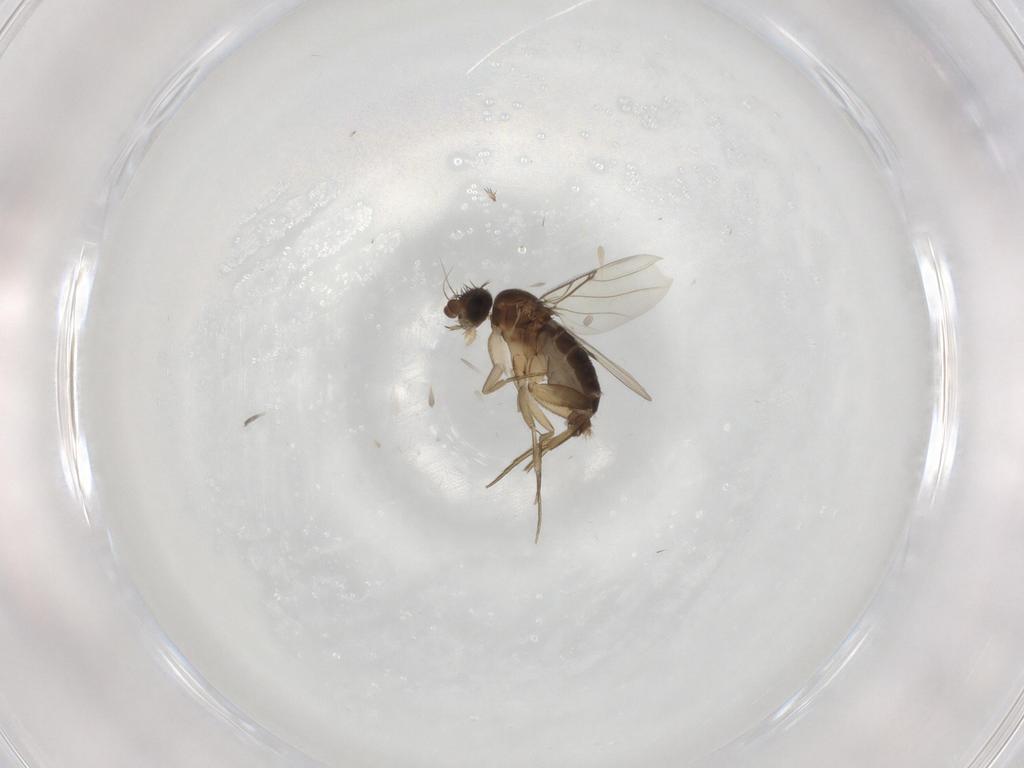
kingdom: Animalia
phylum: Arthropoda
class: Insecta
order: Diptera
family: Phoridae
